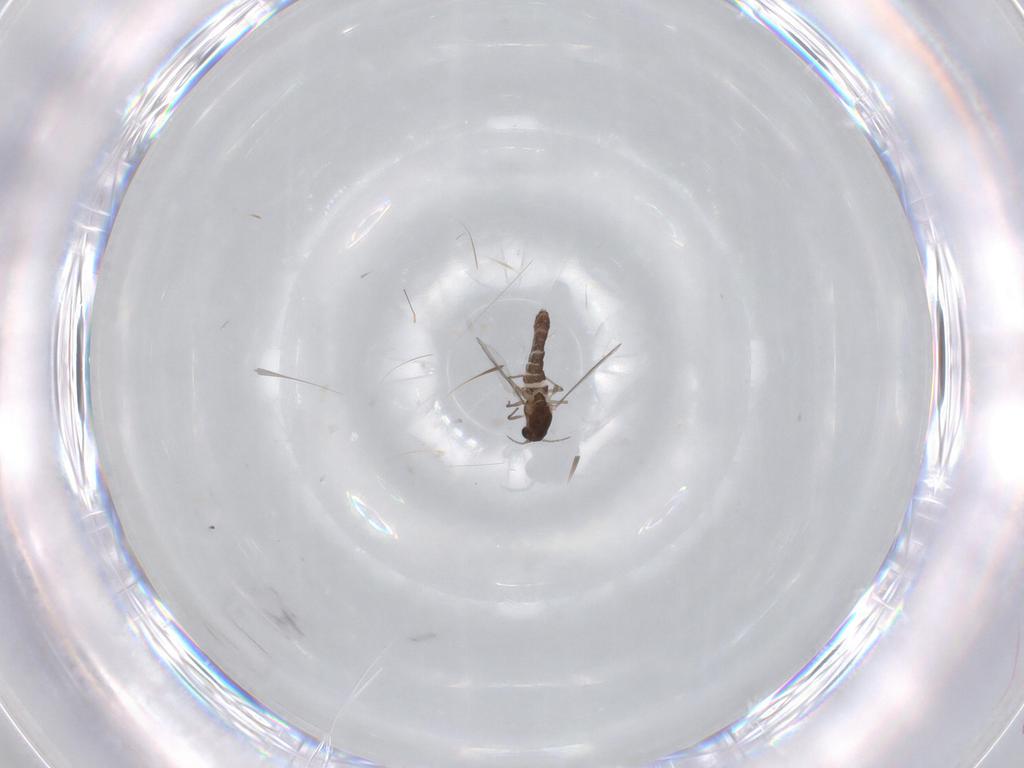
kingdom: Animalia
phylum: Arthropoda
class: Insecta
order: Diptera
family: Chironomidae
